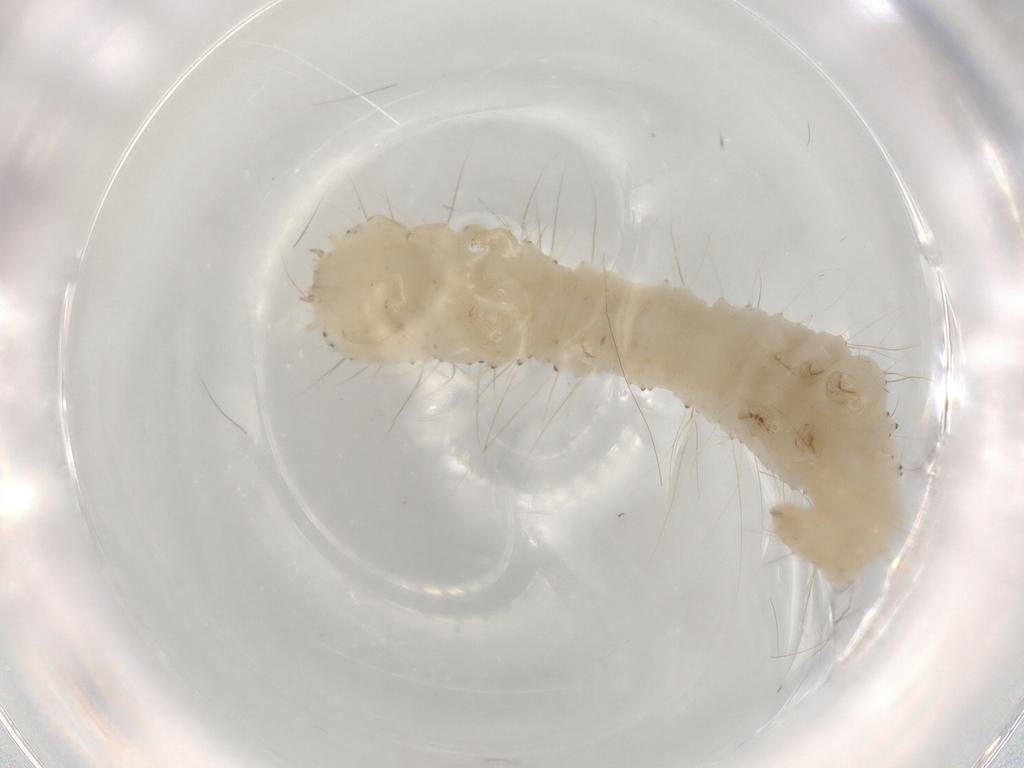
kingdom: Animalia
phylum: Arthropoda
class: Insecta
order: Lepidoptera
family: Noctuidae
